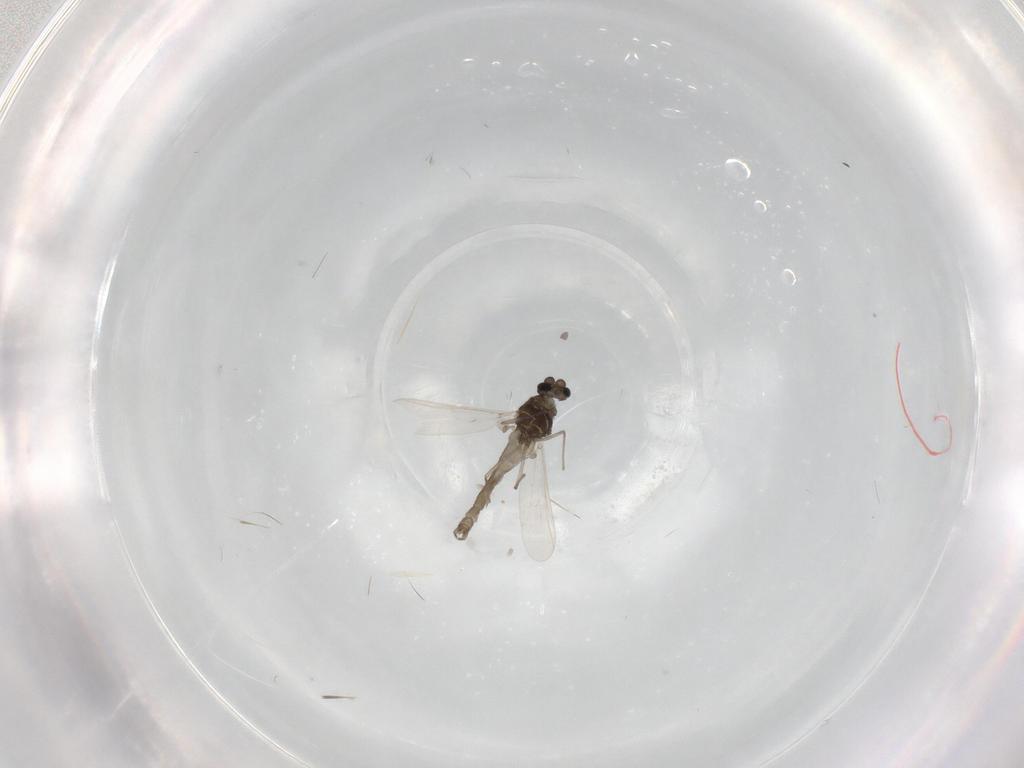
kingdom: Animalia
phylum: Arthropoda
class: Insecta
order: Diptera
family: Chironomidae
